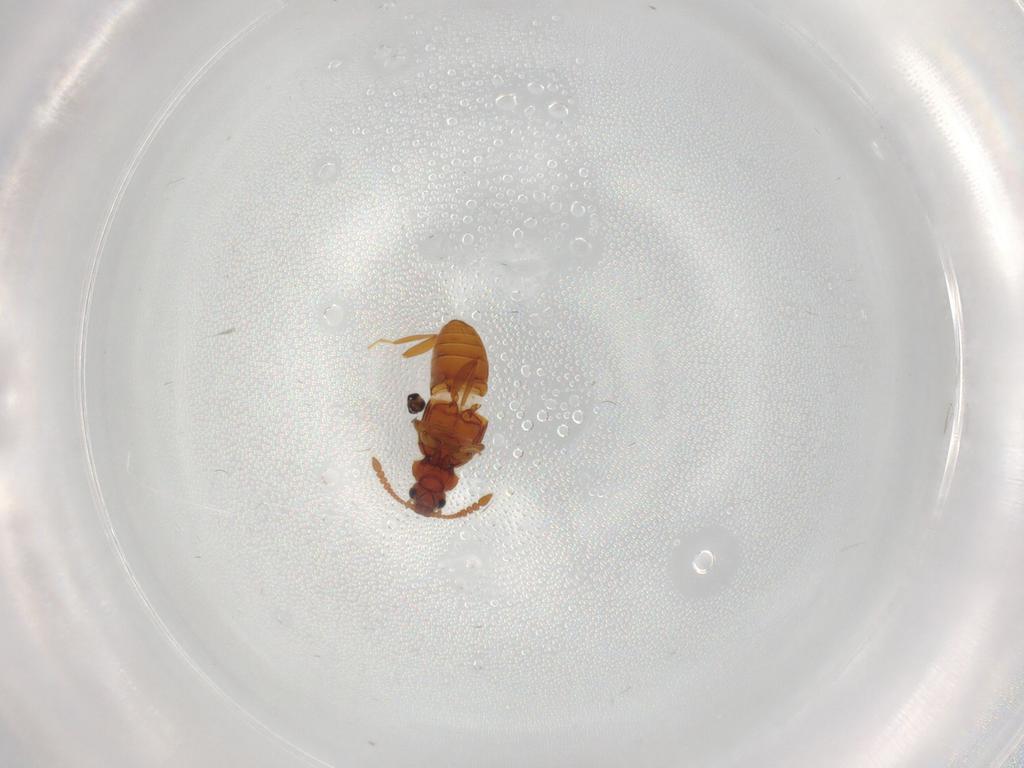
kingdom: Animalia
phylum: Arthropoda
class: Insecta
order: Coleoptera
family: Staphylinidae
